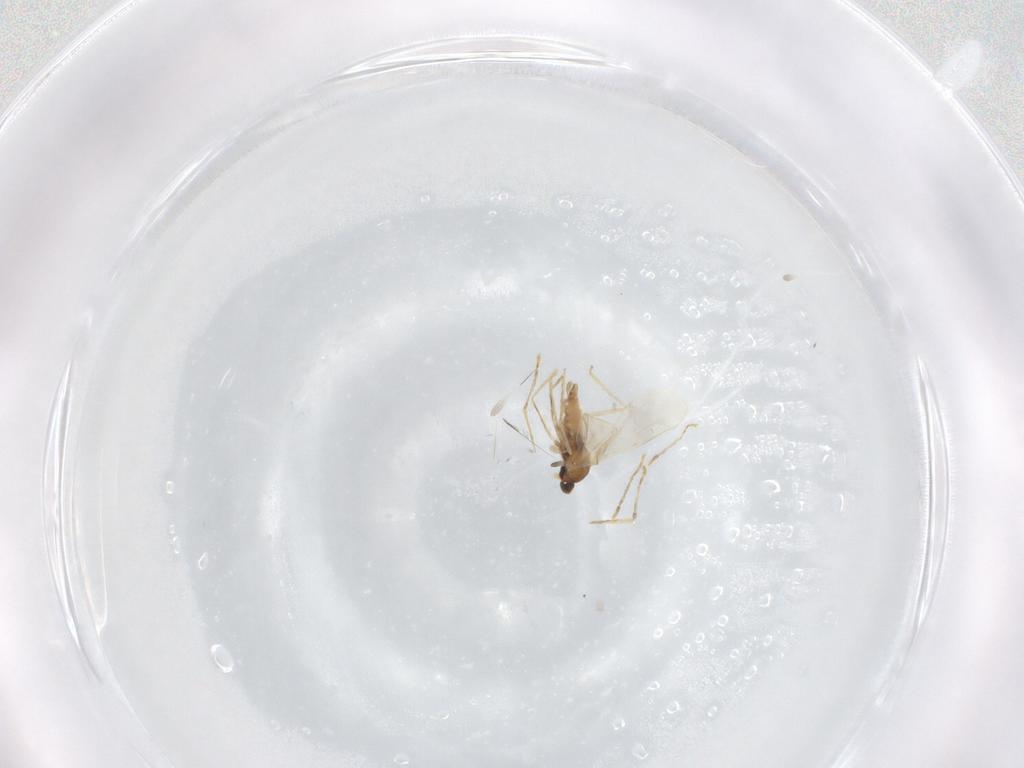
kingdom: Animalia
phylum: Arthropoda
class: Insecta
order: Diptera
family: Cecidomyiidae
